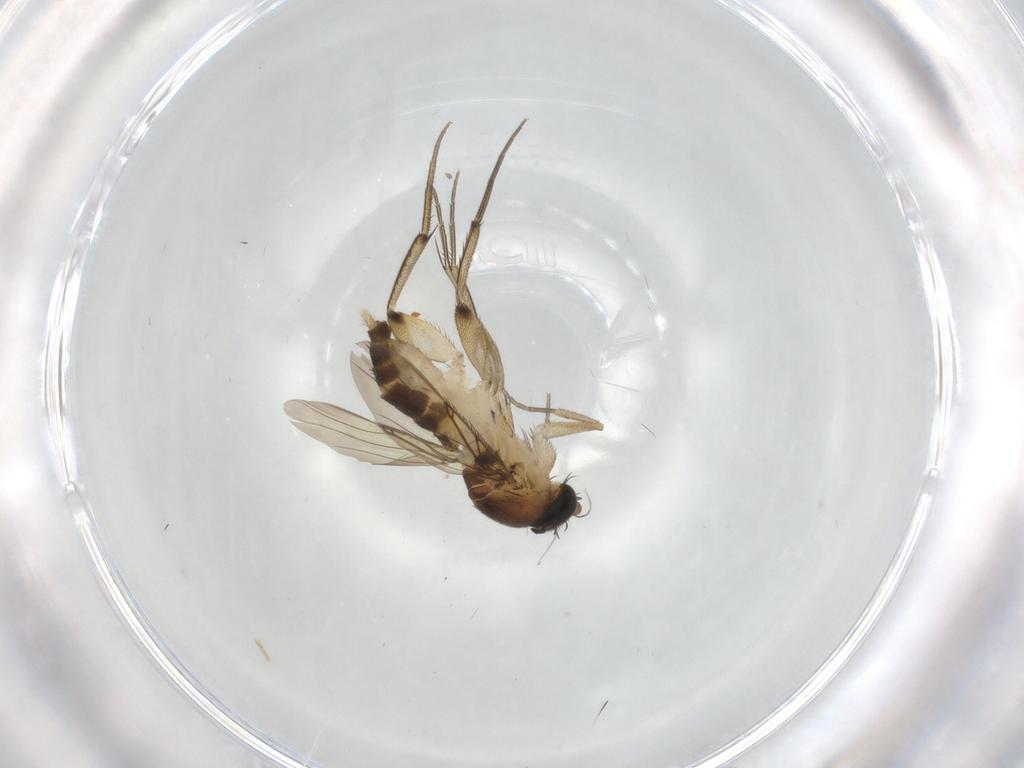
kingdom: Animalia
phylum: Arthropoda
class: Insecta
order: Diptera
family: Phoridae
